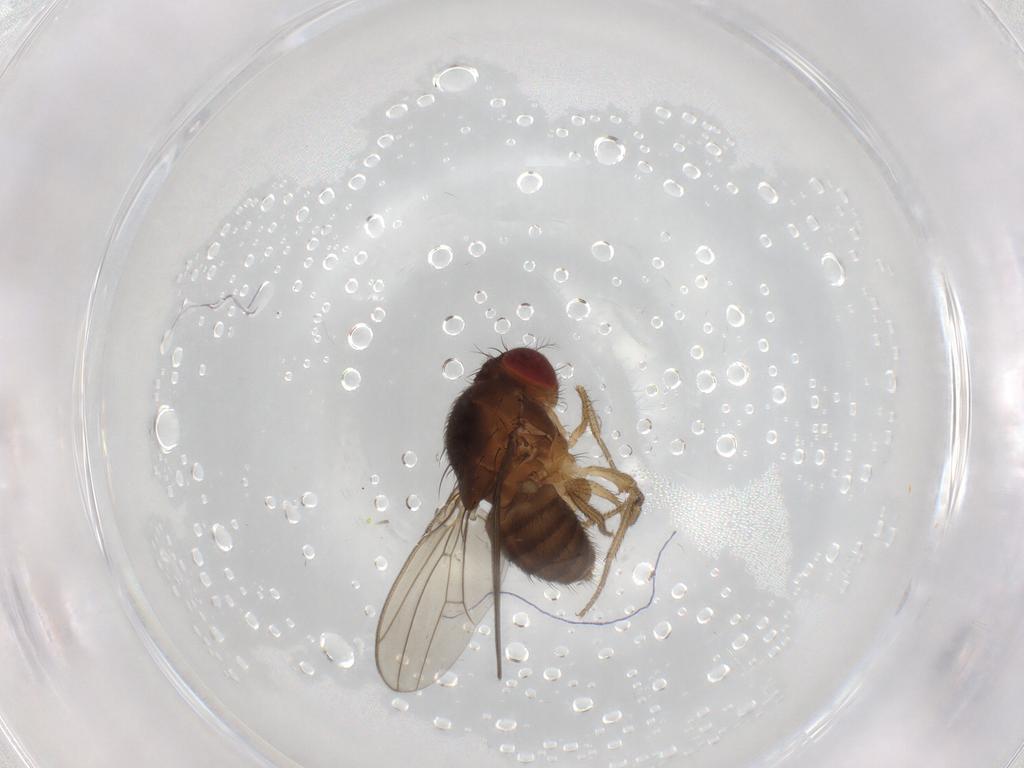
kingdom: Animalia
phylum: Arthropoda
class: Insecta
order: Diptera
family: Drosophilidae
